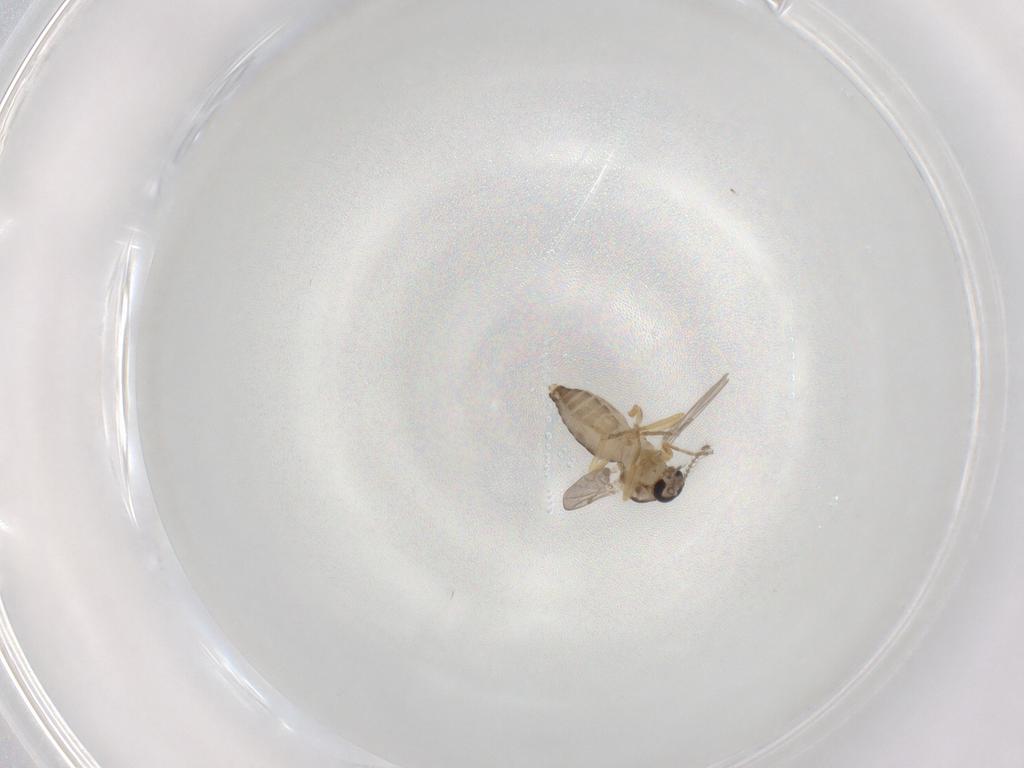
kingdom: Animalia
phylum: Arthropoda
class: Insecta
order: Diptera
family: Ceratopogonidae
